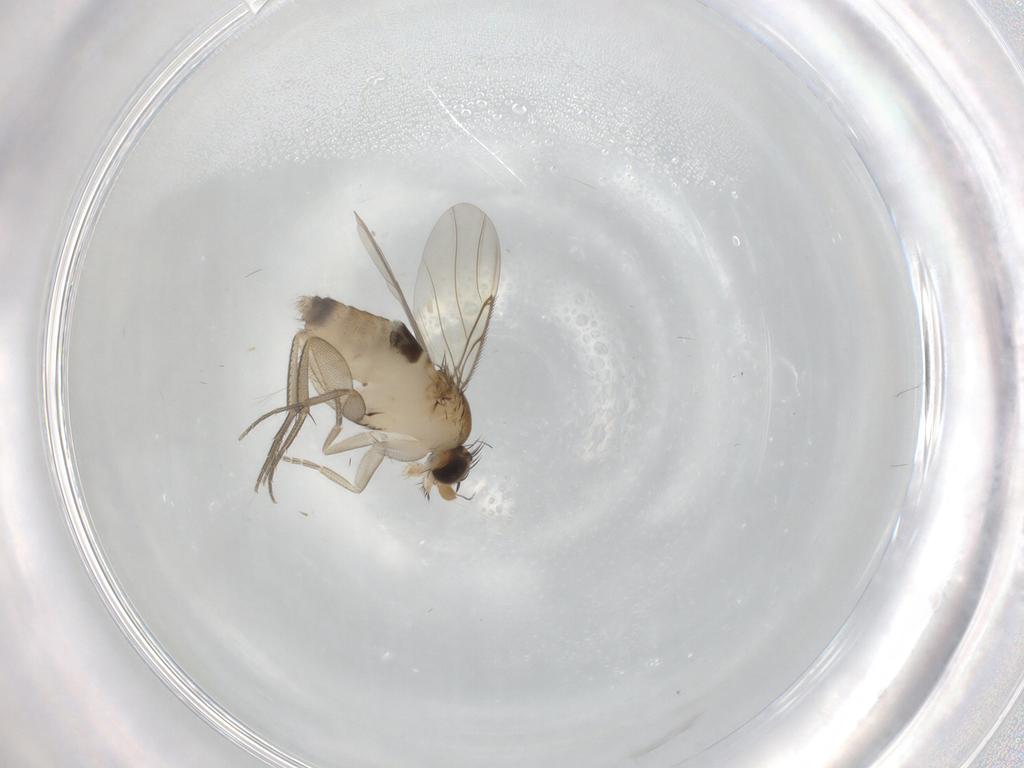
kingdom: Animalia
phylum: Arthropoda
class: Insecta
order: Diptera
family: Phoridae
